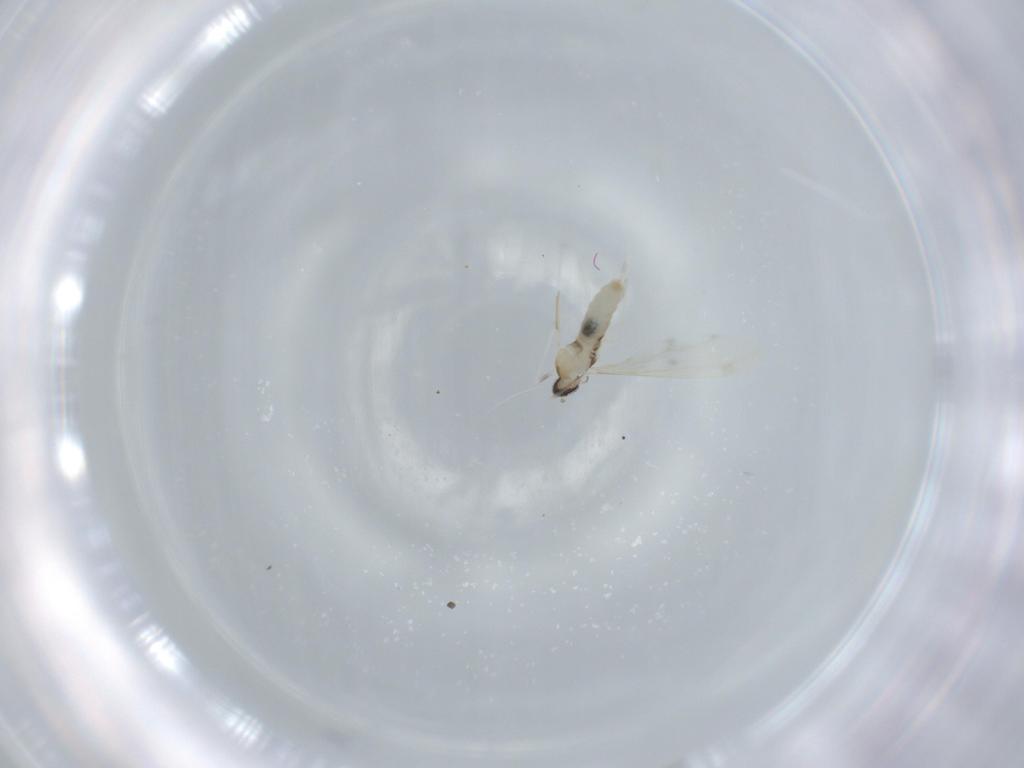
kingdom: Animalia
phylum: Arthropoda
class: Insecta
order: Diptera
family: Cecidomyiidae
